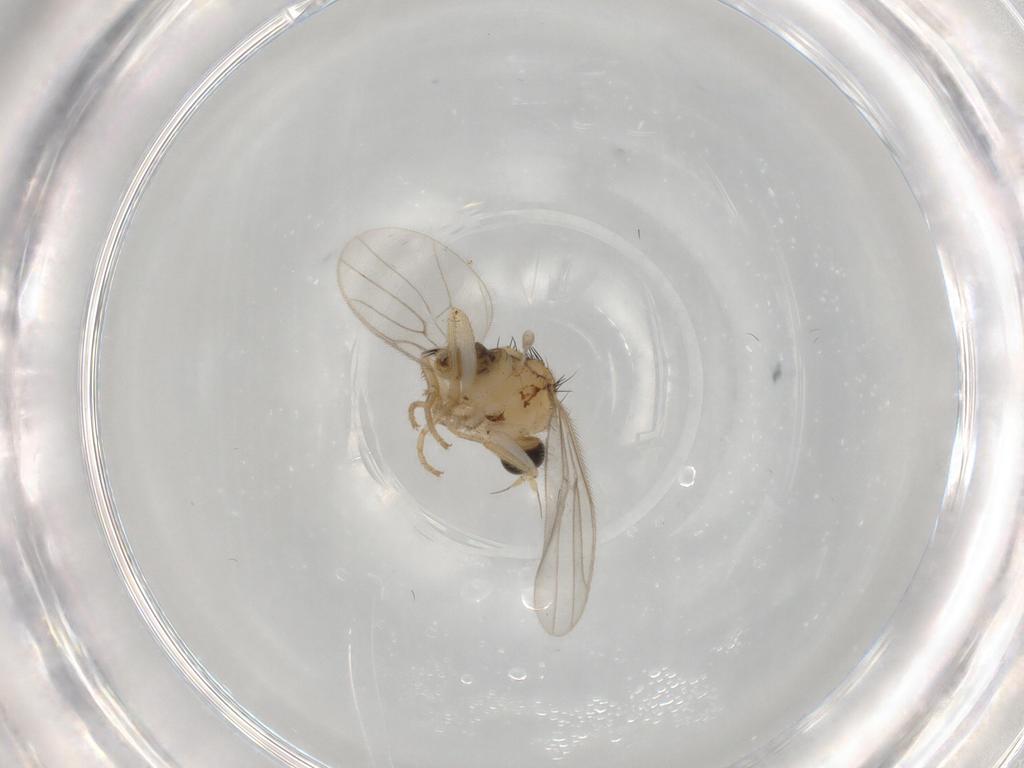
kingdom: Animalia
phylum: Arthropoda
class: Insecta
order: Diptera
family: Hybotidae
